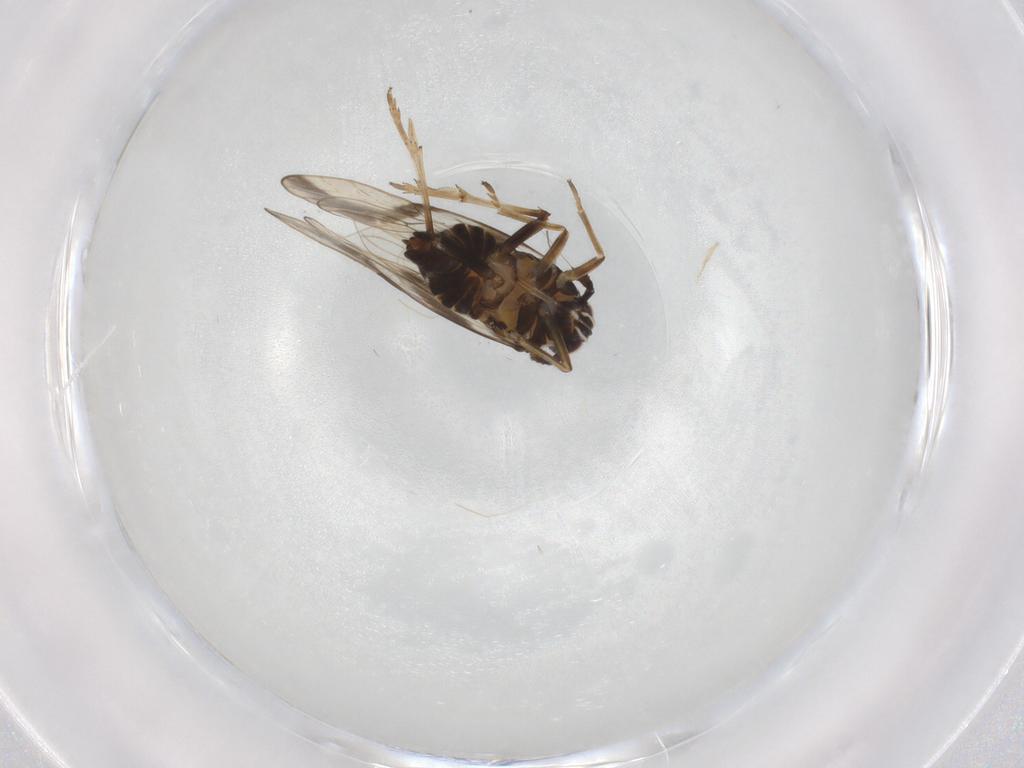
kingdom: Animalia
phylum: Arthropoda
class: Insecta
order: Hemiptera
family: Delphacidae
